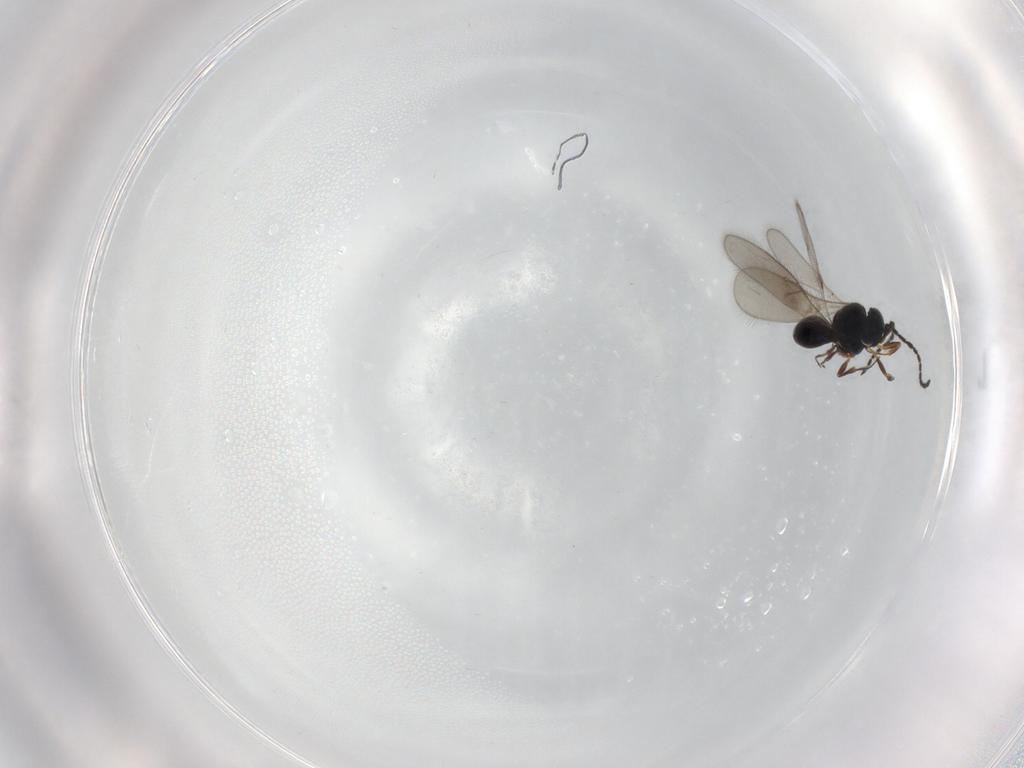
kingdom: Animalia
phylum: Arthropoda
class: Insecta
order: Hymenoptera
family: Scelionidae
